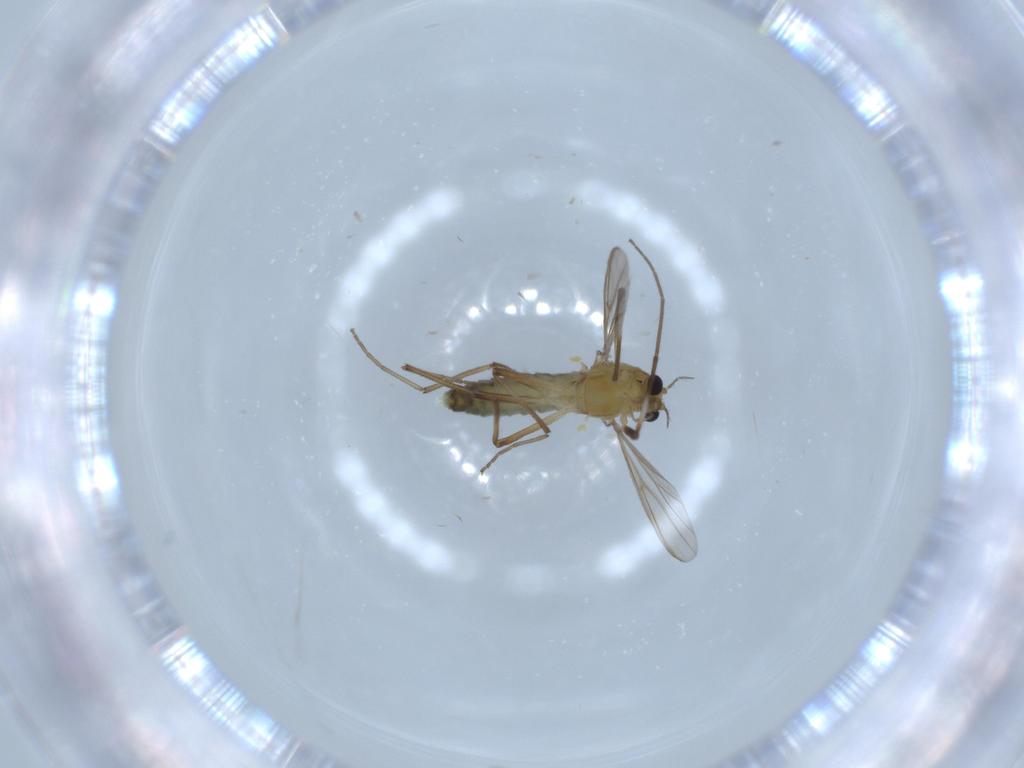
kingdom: Animalia
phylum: Arthropoda
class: Insecta
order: Diptera
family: Chironomidae
